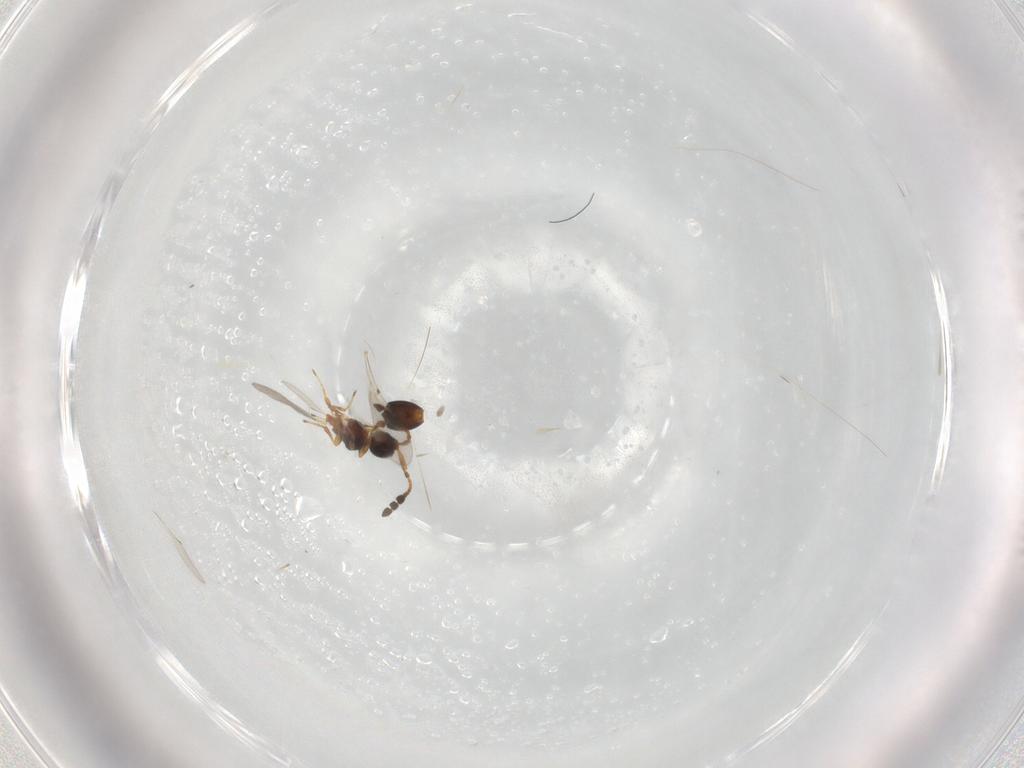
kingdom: Animalia
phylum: Arthropoda
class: Insecta
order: Hymenoptera
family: Diapriidae
